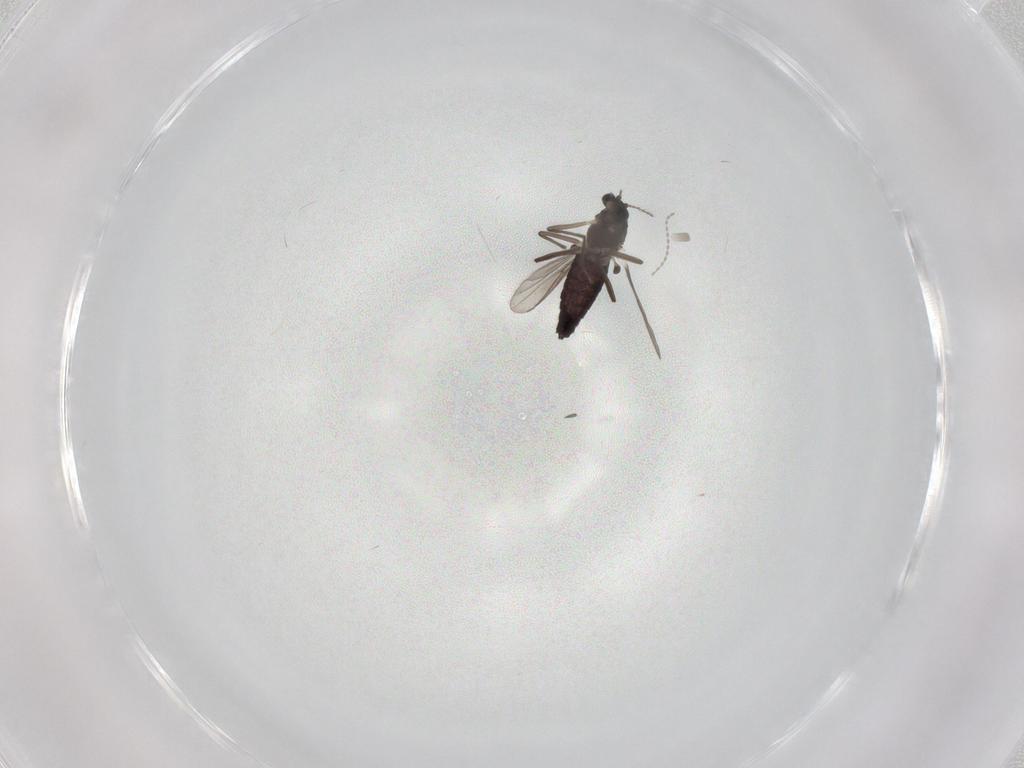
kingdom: Animalia
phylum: Arthropoda
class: Insecta
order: Diptera
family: Chironomidae
